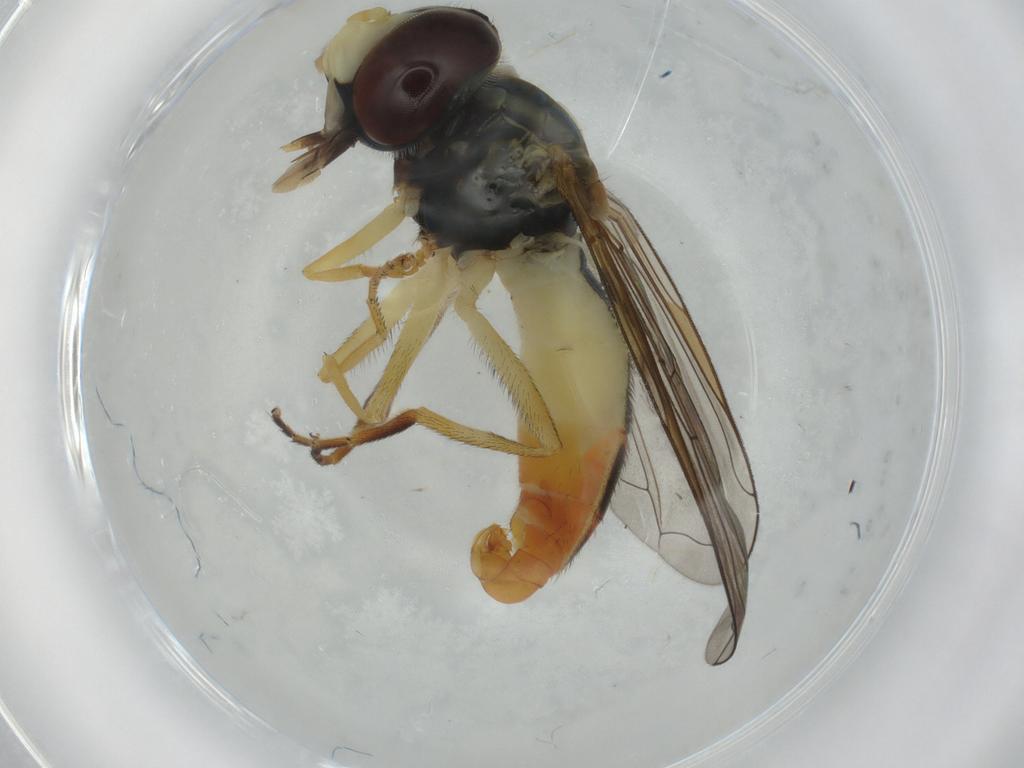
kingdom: Animalia
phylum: Arthropoda
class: Insecta
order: Diptera
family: Syrphidae
